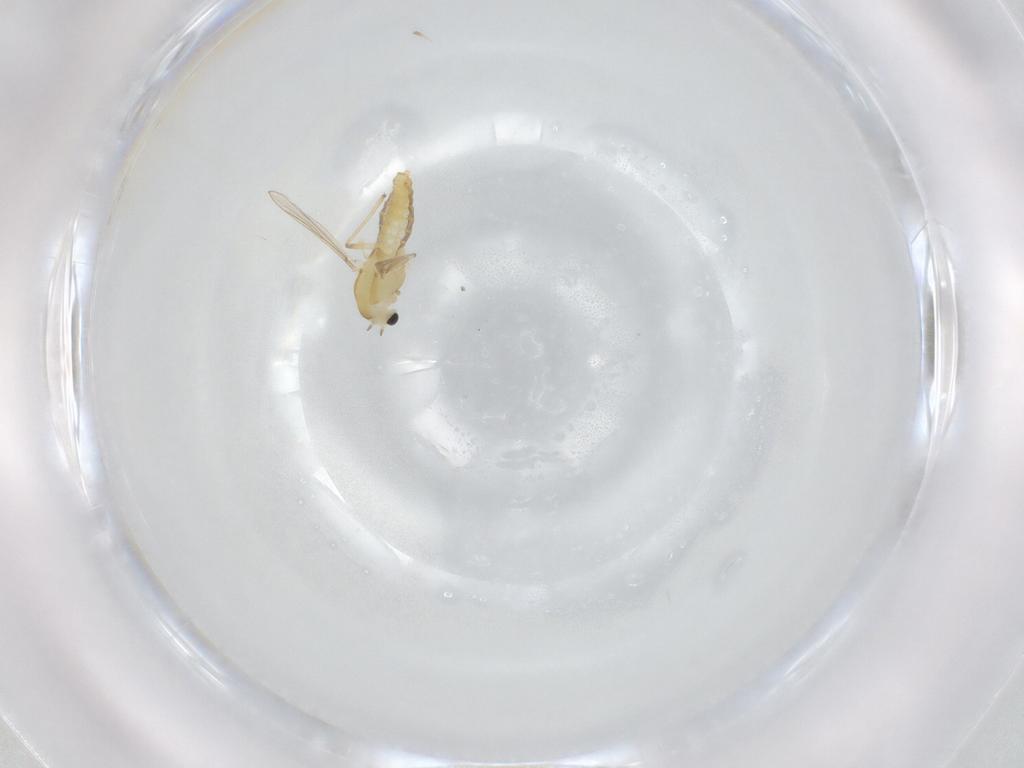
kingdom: Animalia
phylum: Arthropoda
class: Insecta
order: Diptera
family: Chironomidae
